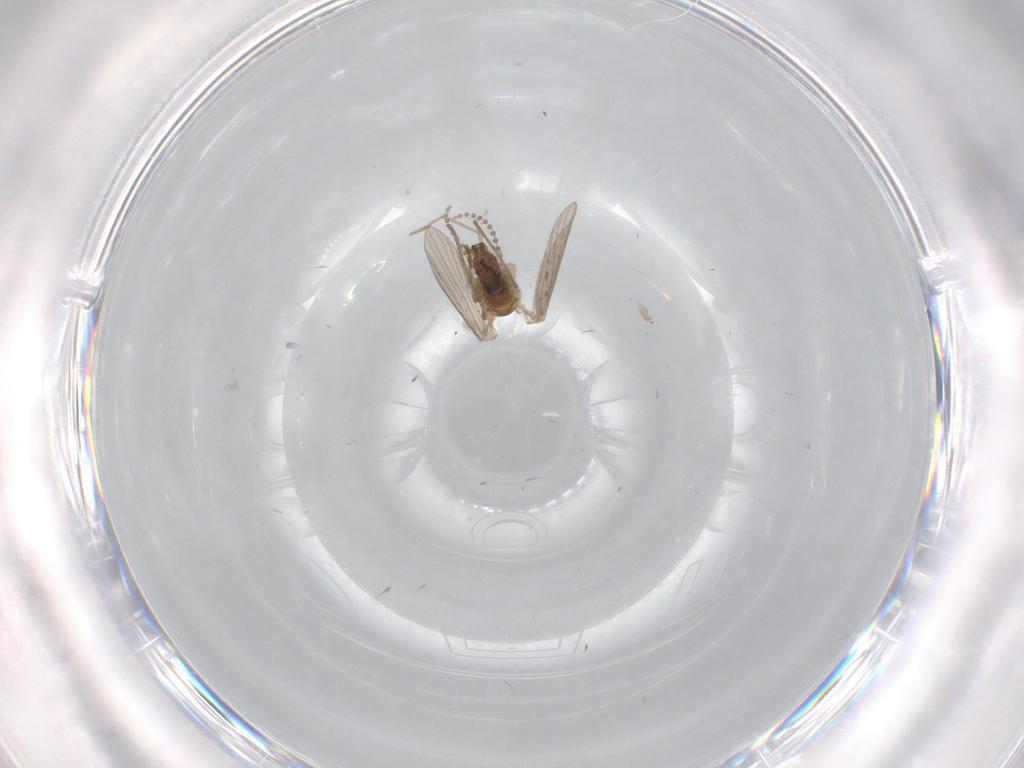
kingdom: Animalia
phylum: Arthropoda
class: Insecta
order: Diptera
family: Psychodidae
